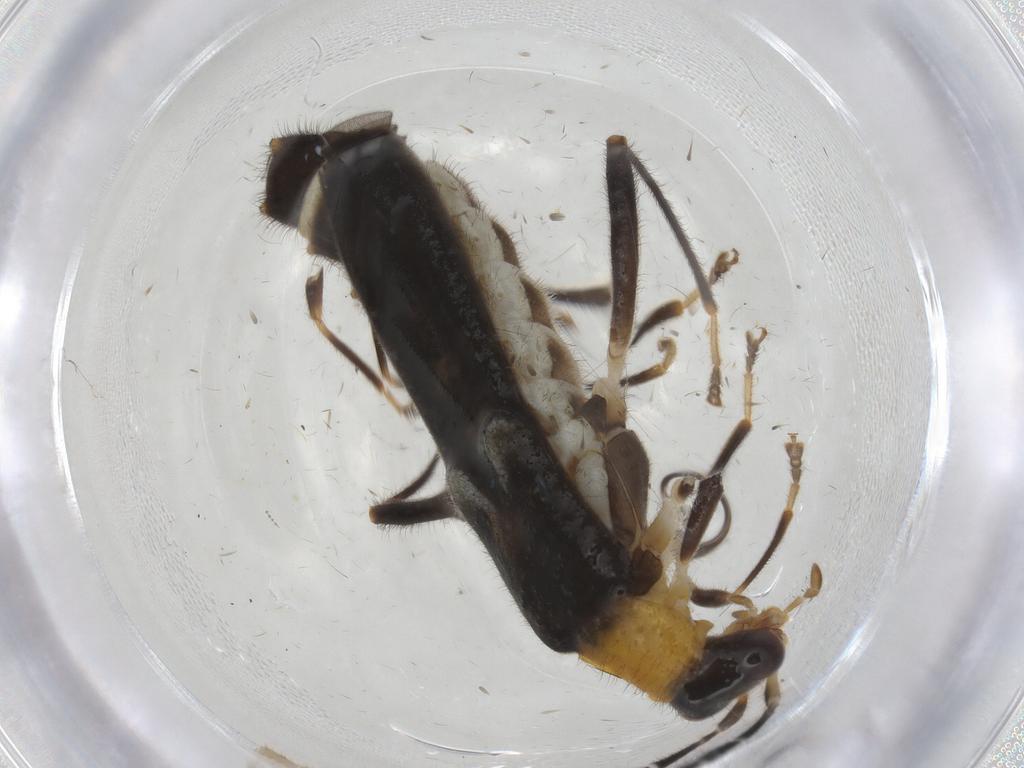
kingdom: Animalia
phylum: Arthropoda
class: Insecta
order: Coleoptera
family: Cantharidae
